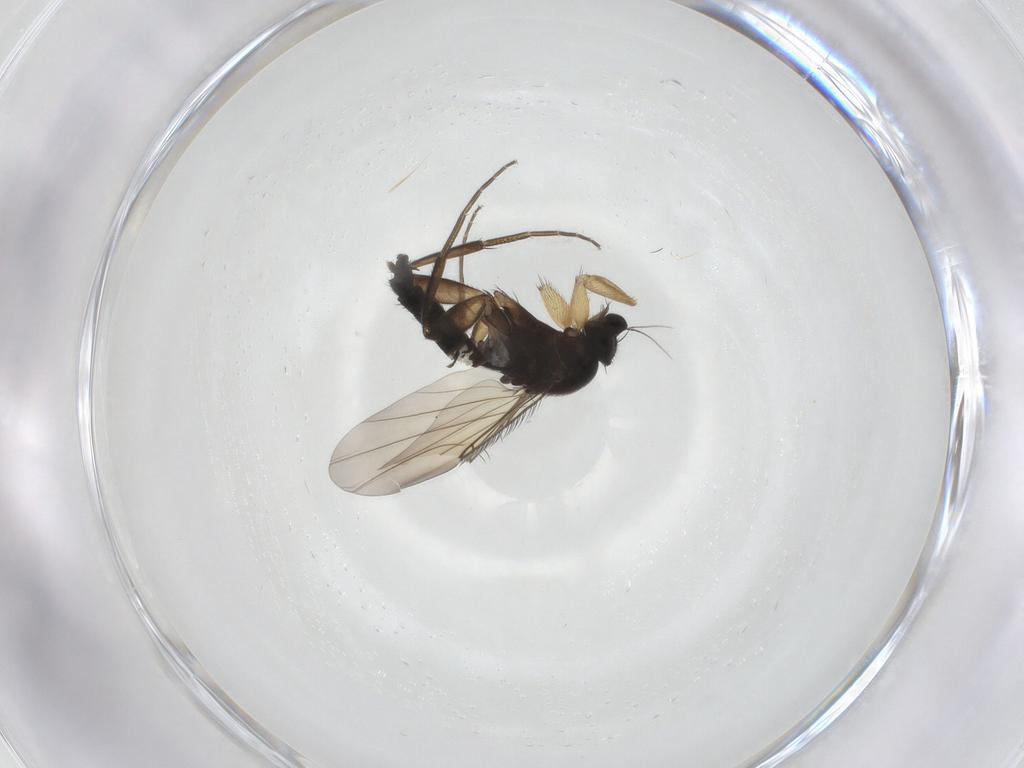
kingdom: Animalia
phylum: Arthropoda
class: Insecta
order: Diptera
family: Phoridae
